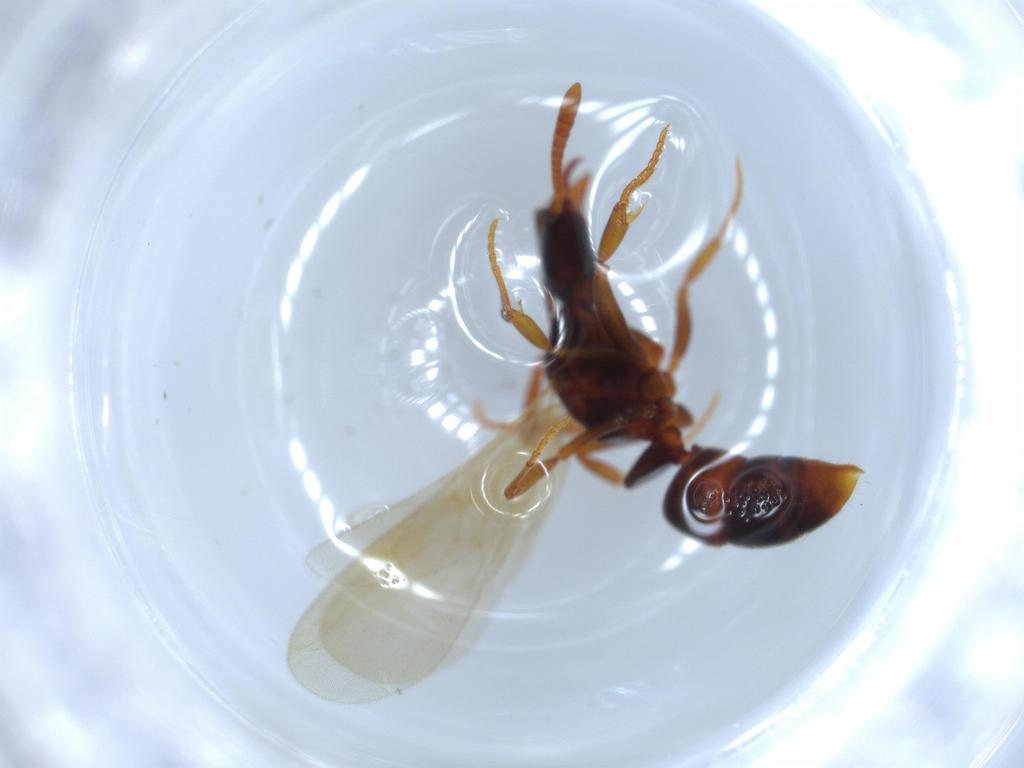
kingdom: Animalia
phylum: Arthropoda
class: Insecta
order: Hymenoptera
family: Formicidae
